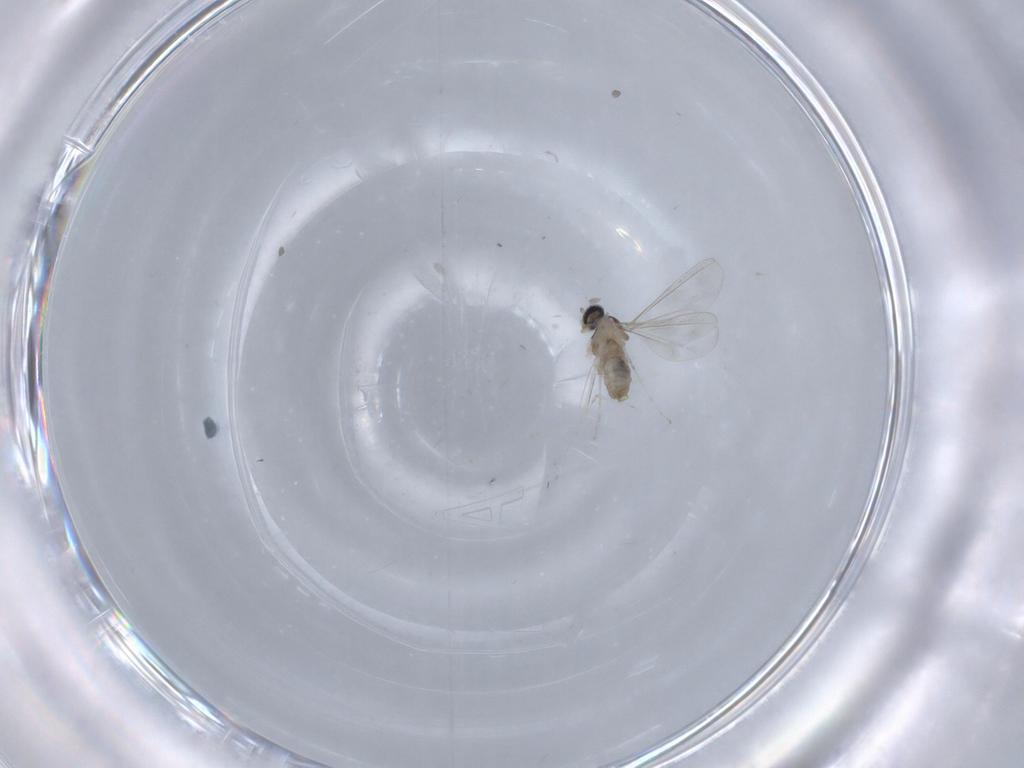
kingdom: Animalia
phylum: Arthropoda
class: Insecta
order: Diptera
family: Cecidomyiidae
